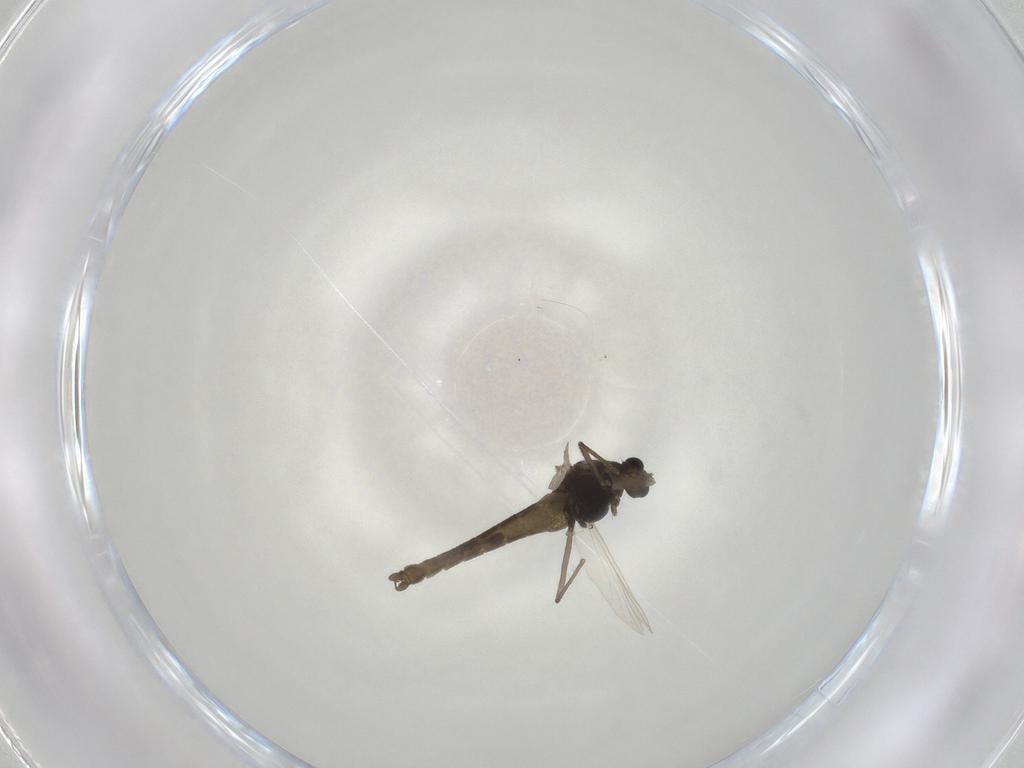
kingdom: Animalia
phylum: Arthropoda
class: Insecta
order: Diptera
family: Chironomidae
